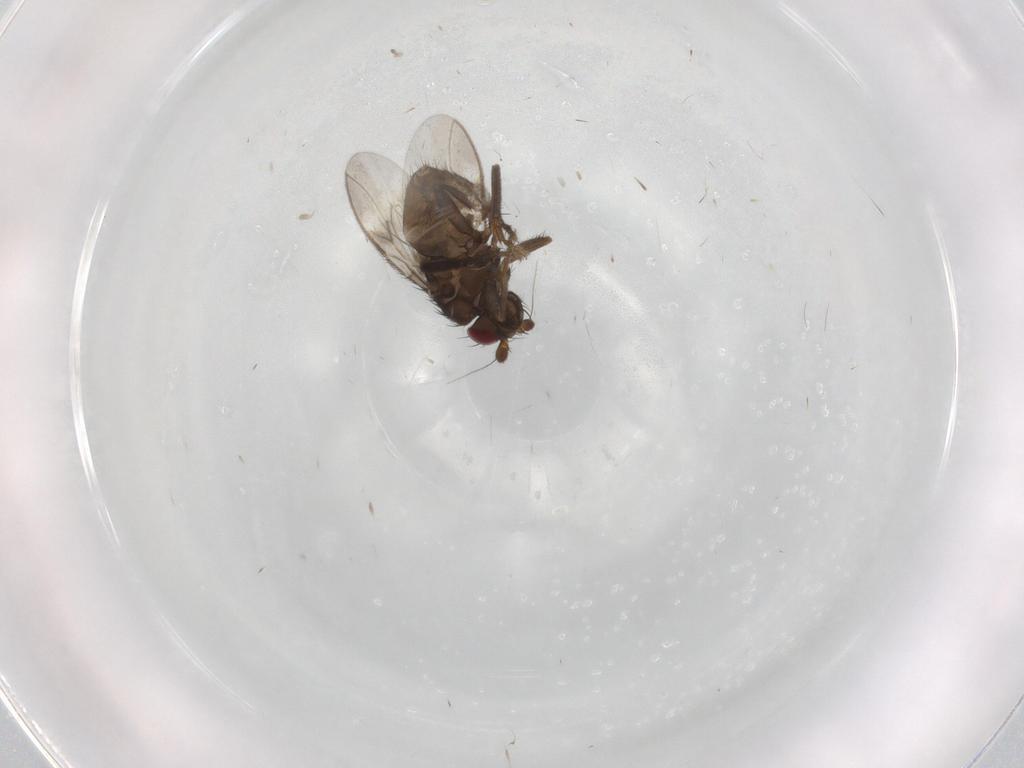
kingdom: Animalia
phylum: Arthropoda
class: Insecta
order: Diptera
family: Sphaeroceridae
